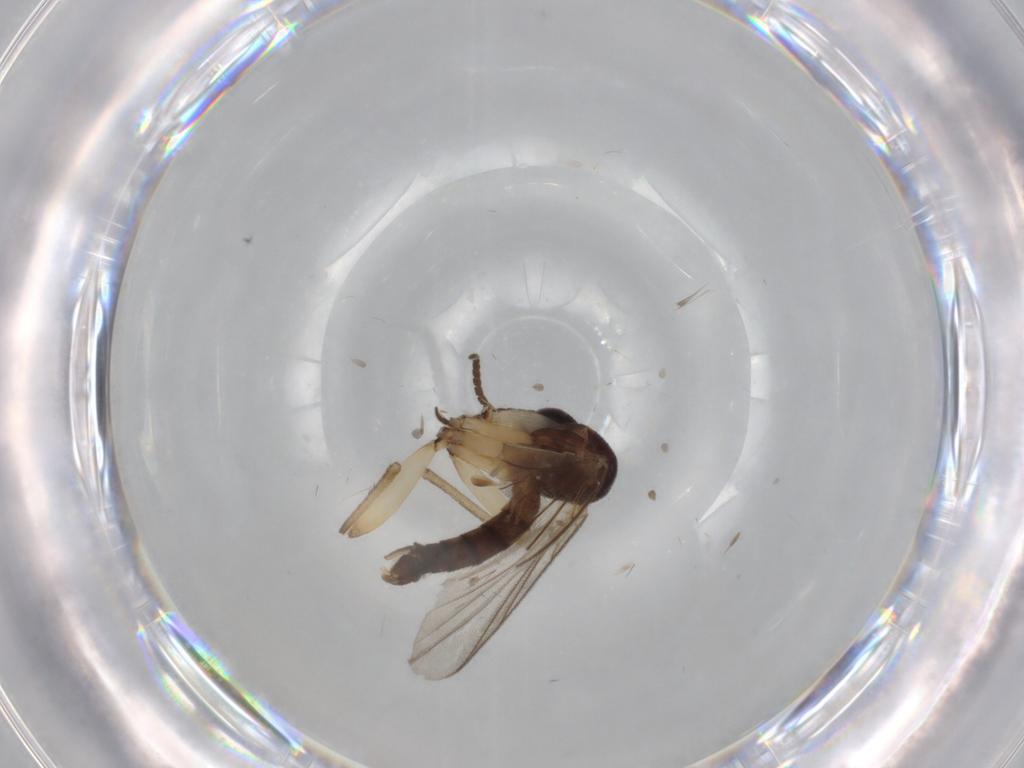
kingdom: Animalia
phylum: Arthropoda
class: Insecta
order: Diptera
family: Mycetophilidae
